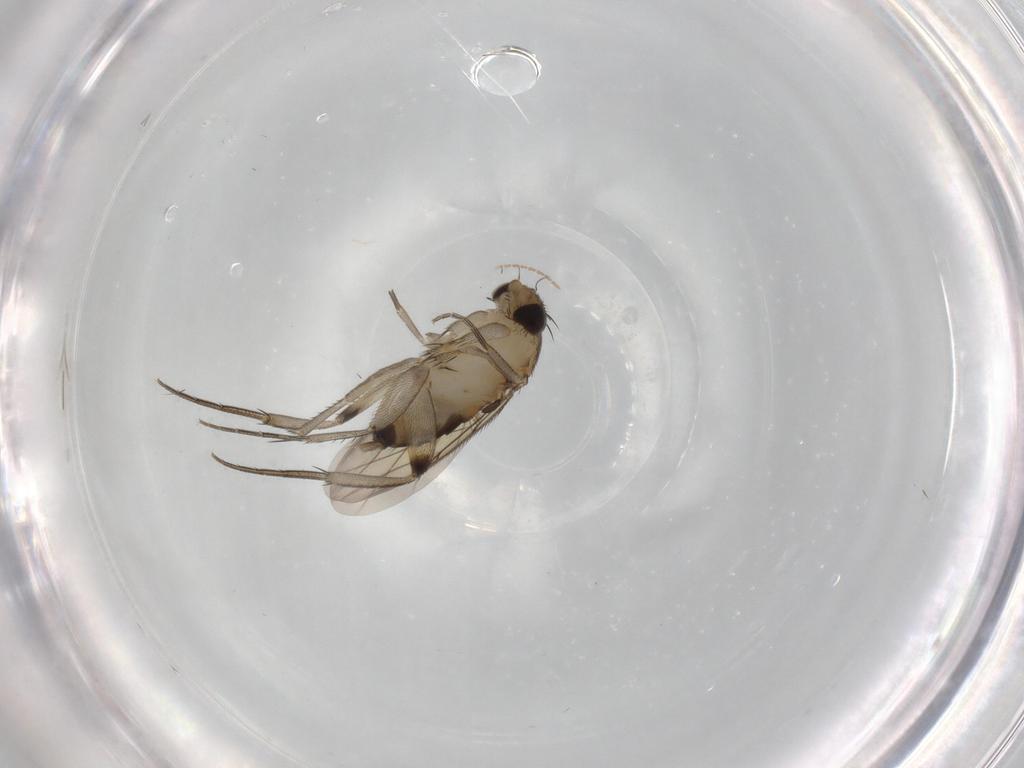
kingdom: Animalia
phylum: Arthropoda
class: Insecta
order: Diptera
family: Phoridae
